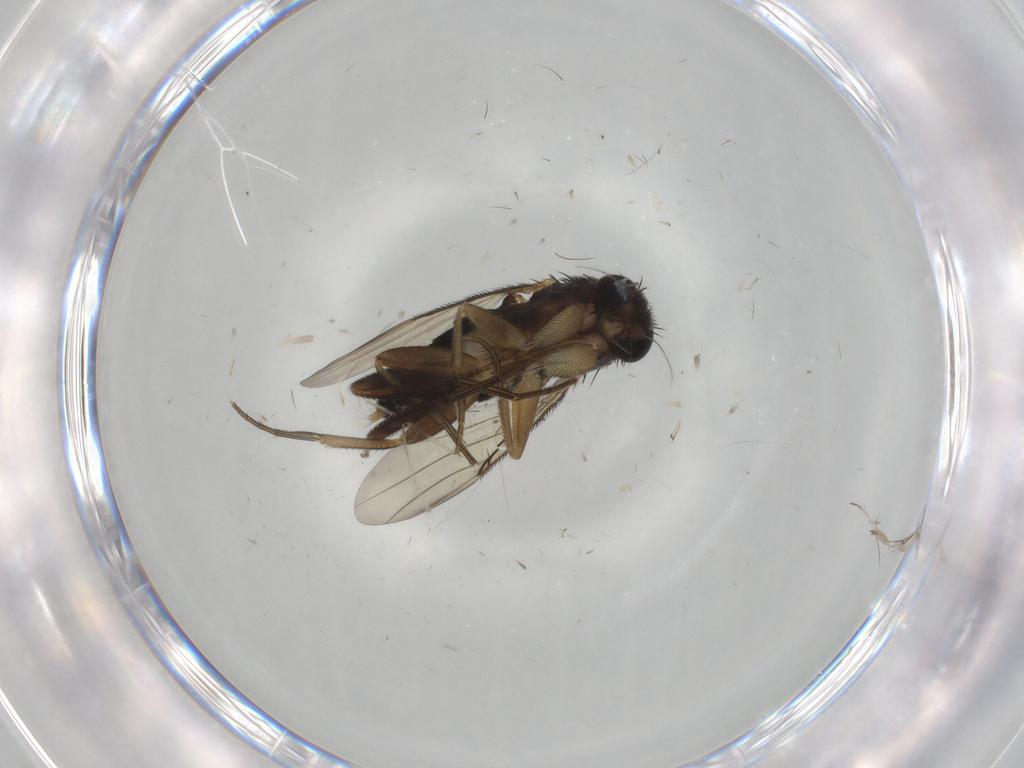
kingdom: Animalia
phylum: Arthropoda
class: Insecta
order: Diptera
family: Phoridae
